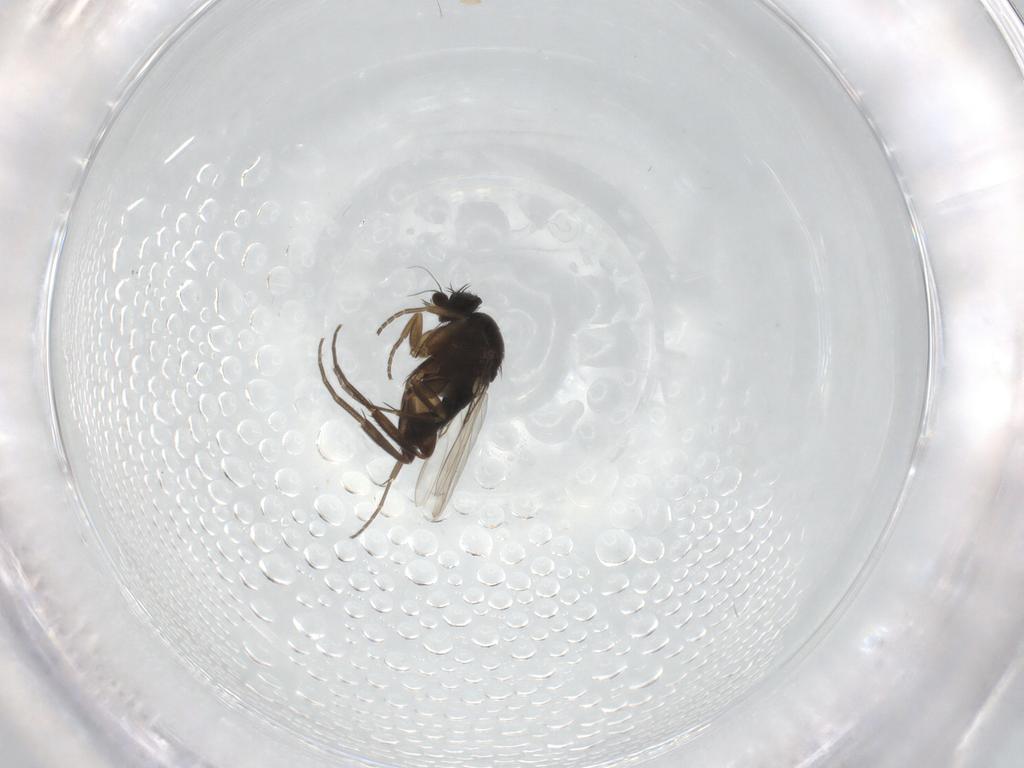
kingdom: Animalia
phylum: Arthropoda
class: Insecta
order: Diptera
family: Phoridae
